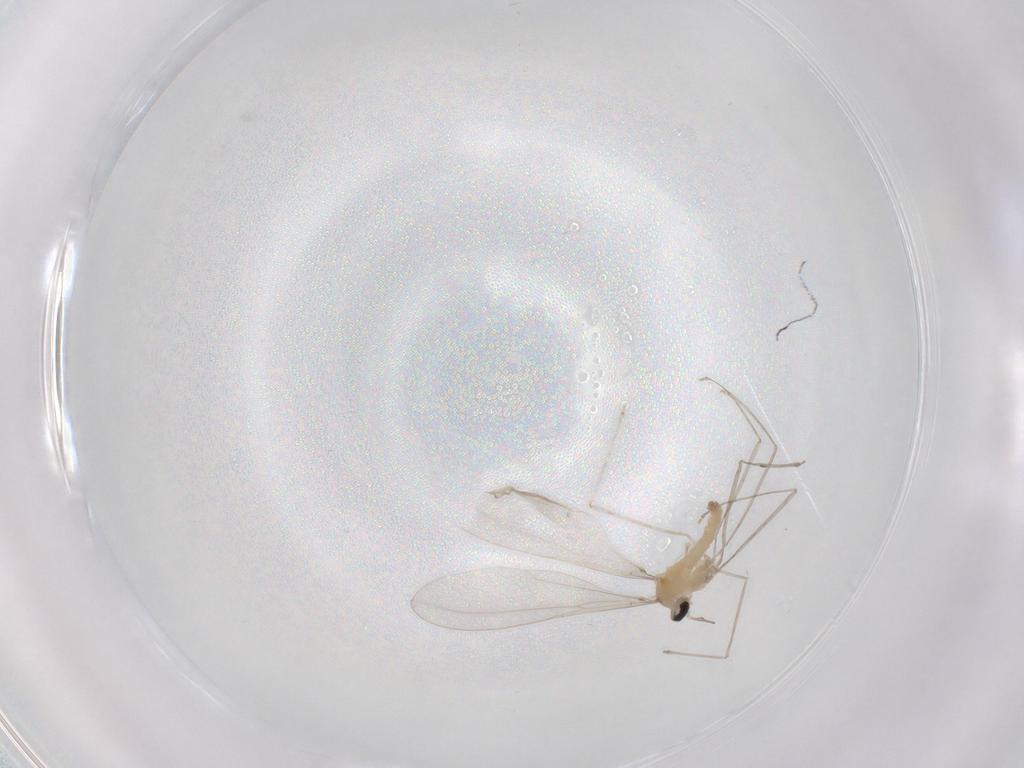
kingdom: Animalia
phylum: Arthropoda
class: Insecta
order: Diptera
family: Cecidomyiidae
